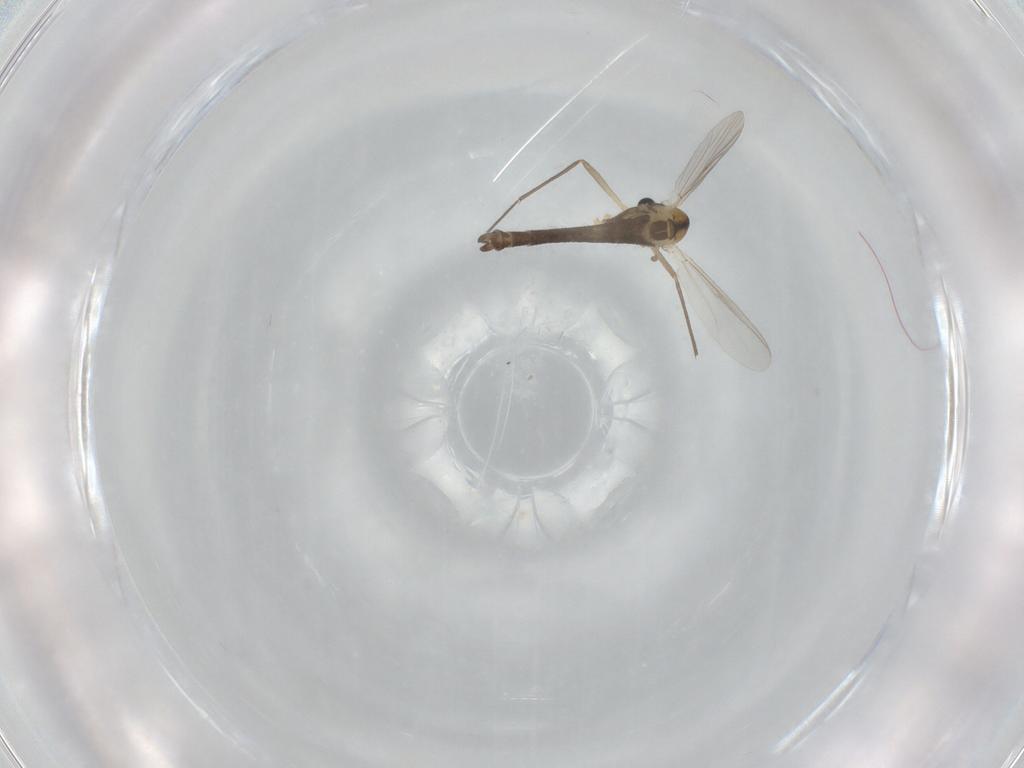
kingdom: Animalia
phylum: Arthropoda
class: Insecta
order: Diptera
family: Chironomidae
